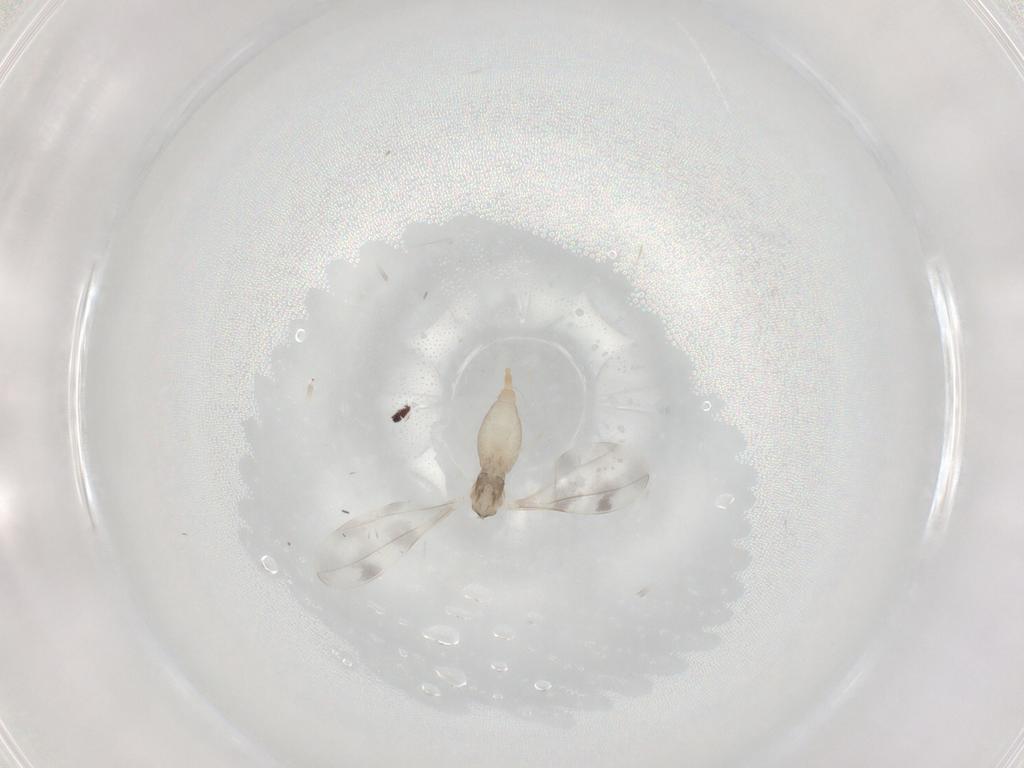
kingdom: Animalia
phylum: Arthropoda
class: Insecta
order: Diptera
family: Cecidomyiidae
